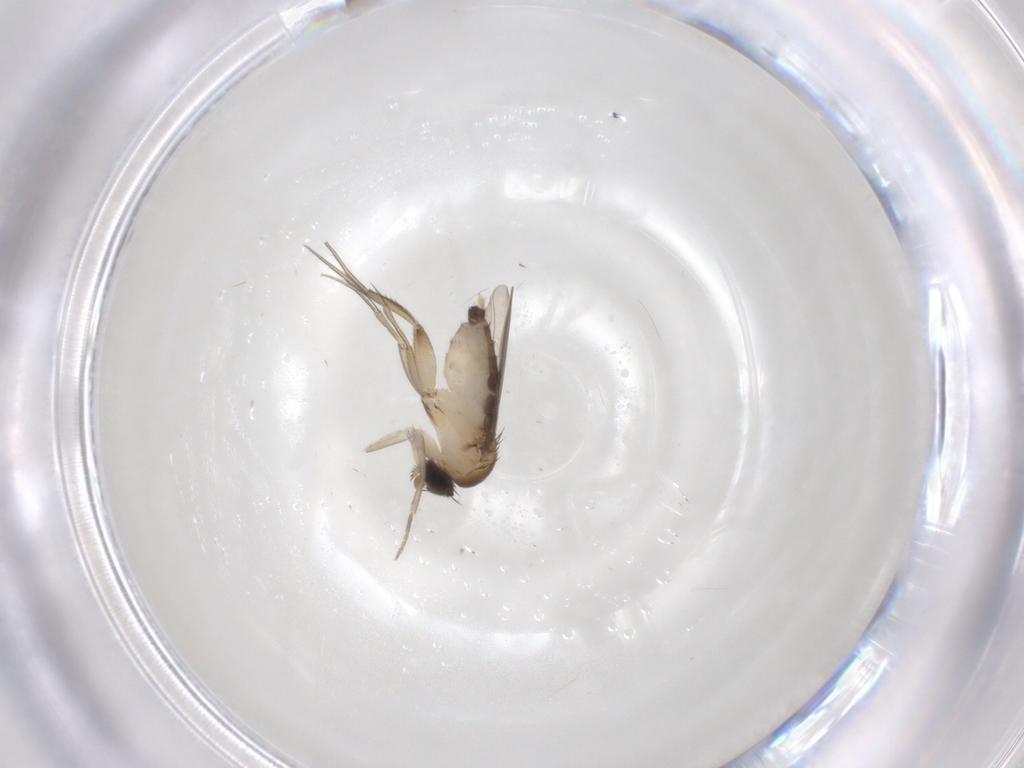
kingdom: Animalia
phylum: Arthropoda
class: Insecta
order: Diptera
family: Phoridae
